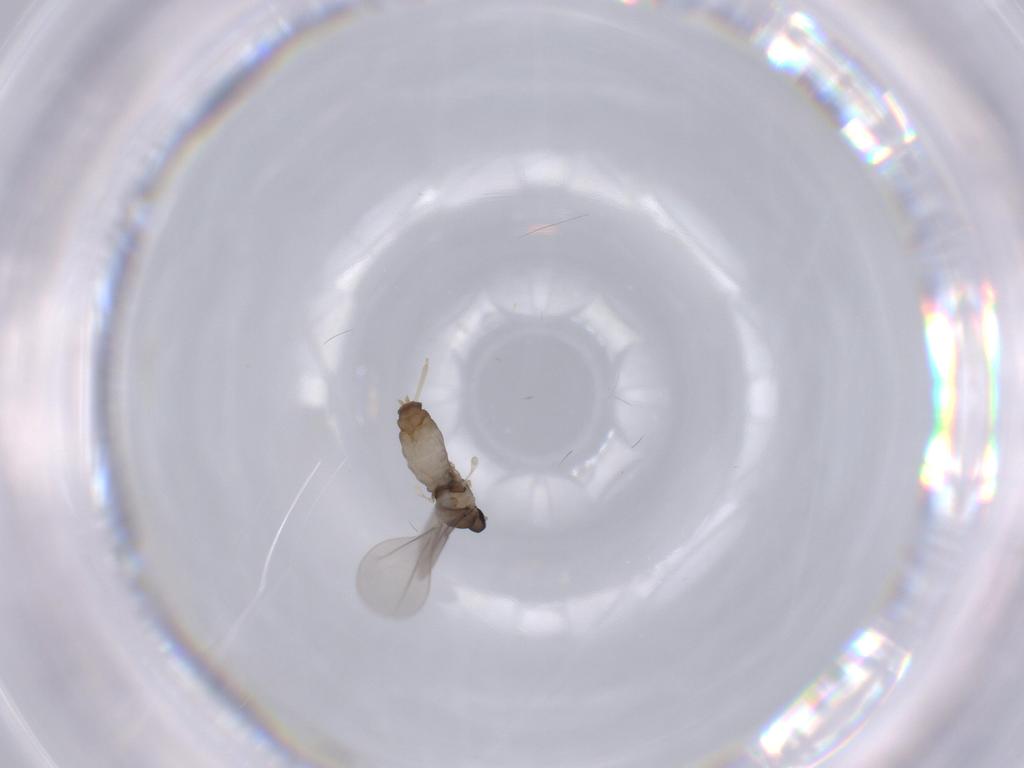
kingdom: Animalia
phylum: Arthropoda
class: Insecta
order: Diptera
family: Cecidomyiidae
